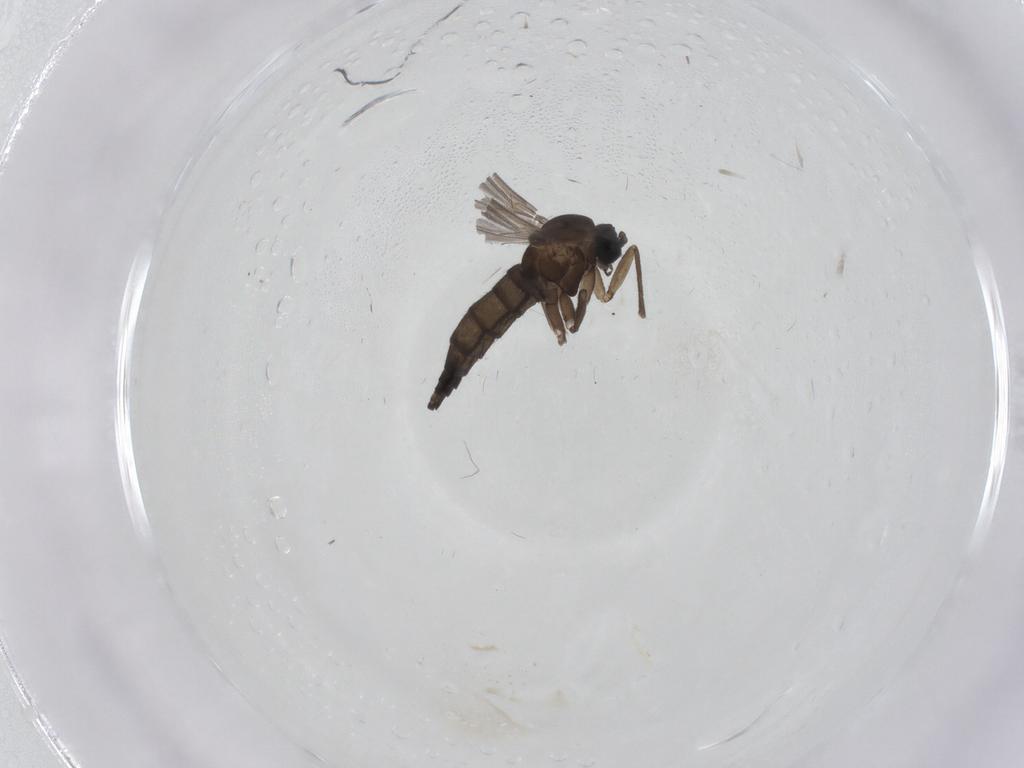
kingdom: Animalia
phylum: Arthropoda
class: Insecta
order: Diptera
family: Sciaridae
